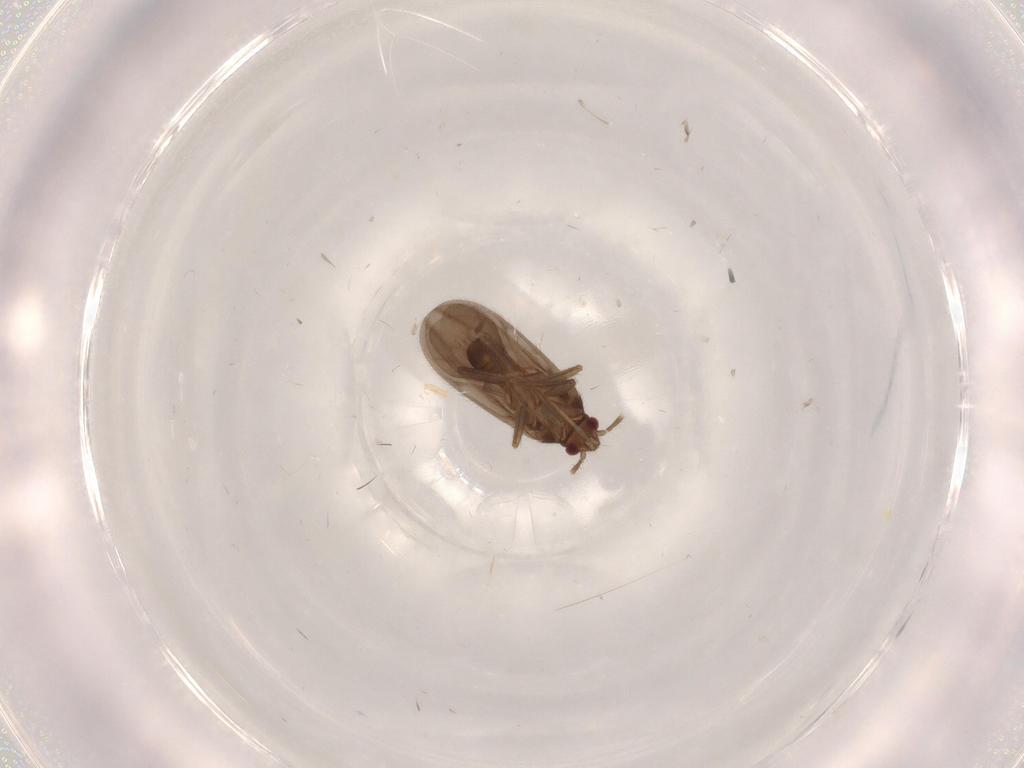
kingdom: Animalia
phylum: Arthropoda
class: Insecta
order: Hemiptera
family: Ceratocombidae
